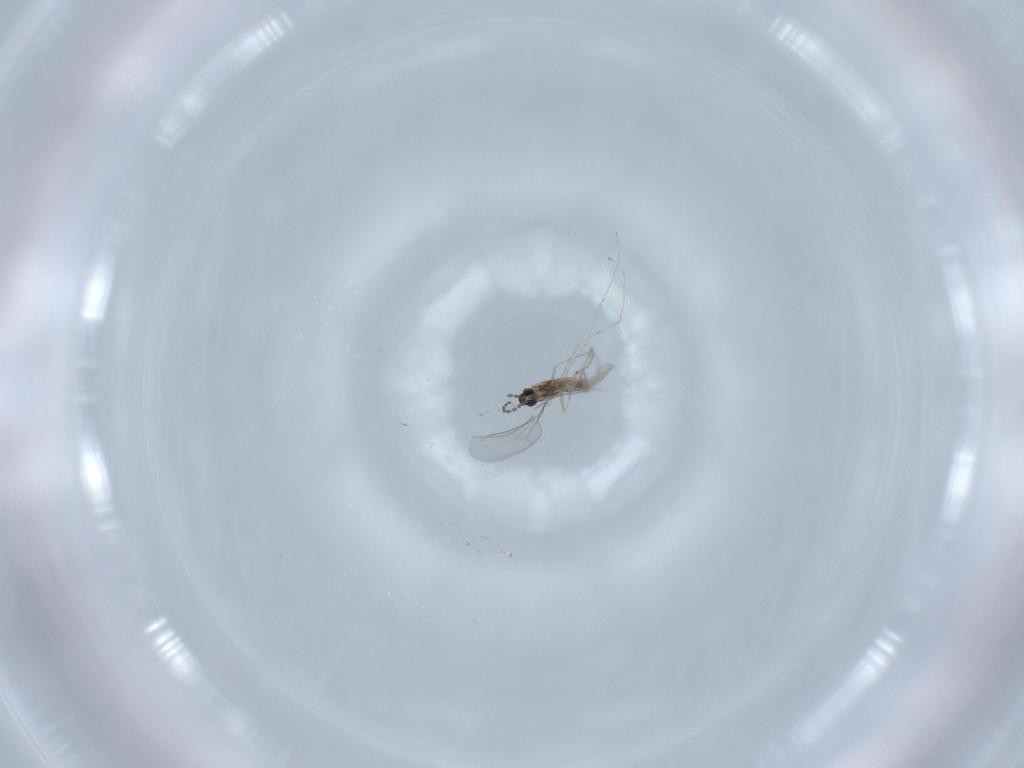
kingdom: Animalia
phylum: Arthropoda
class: Insecta
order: Diptera
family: Cecidomyiidae
